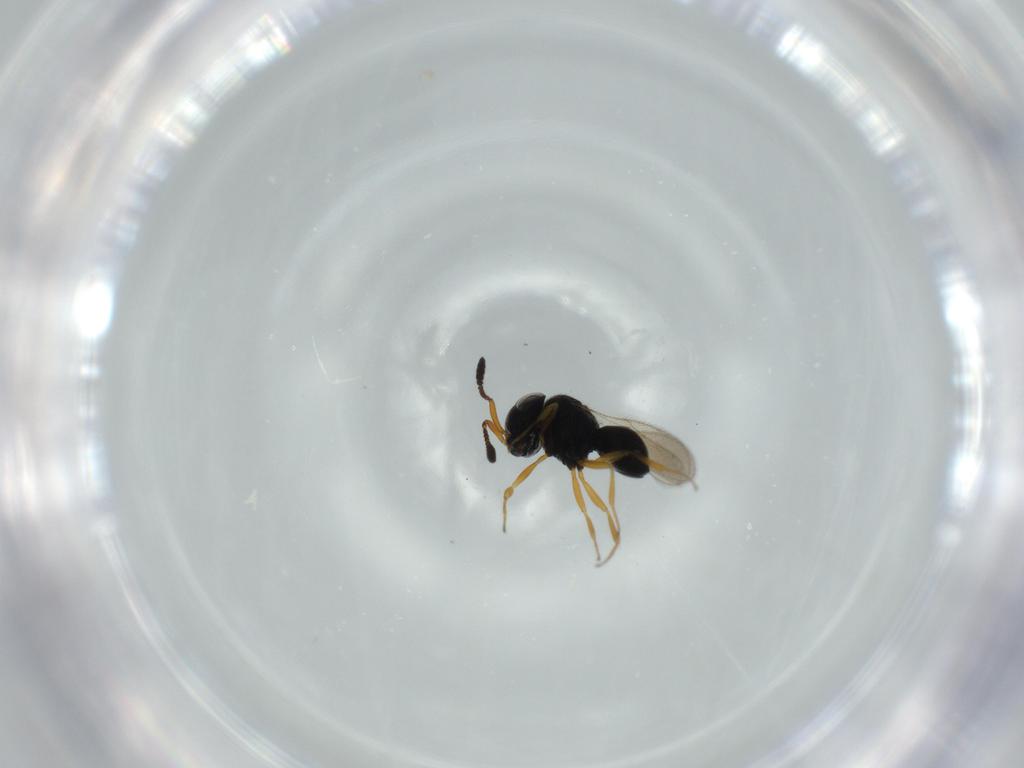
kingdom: Animalia
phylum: Arthropoda
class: Insecta
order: Hymenoptera
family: Scelionidae
